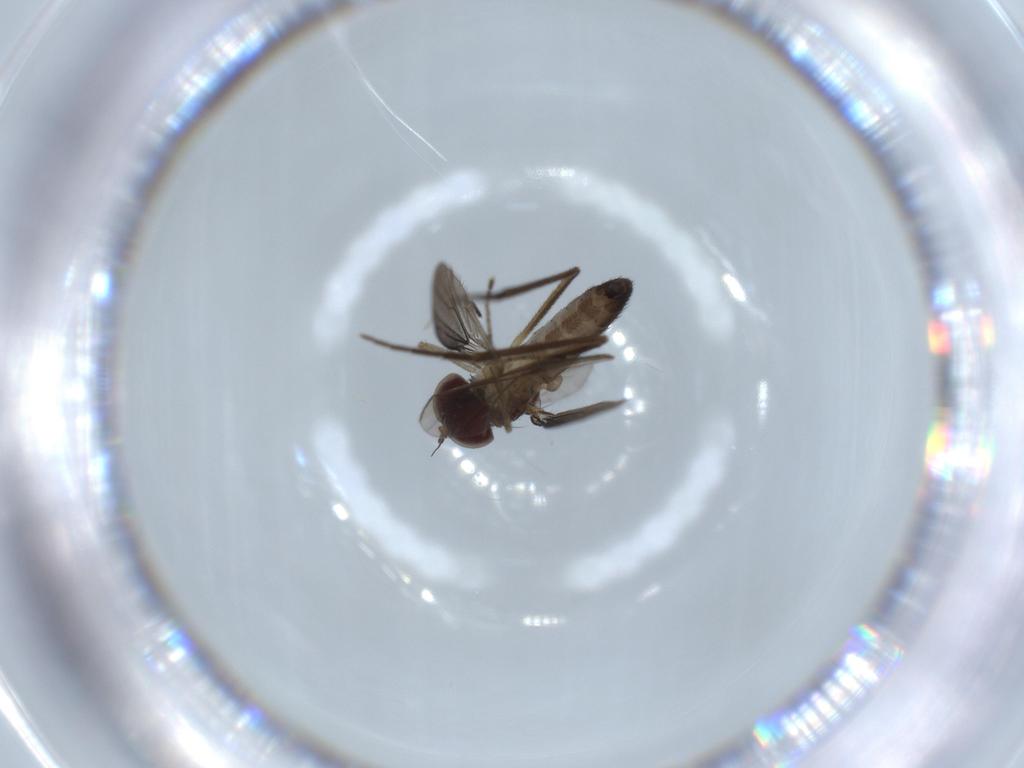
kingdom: Animalia
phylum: Arthropoda
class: Insecta
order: Diptera
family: Dolichopodidae
